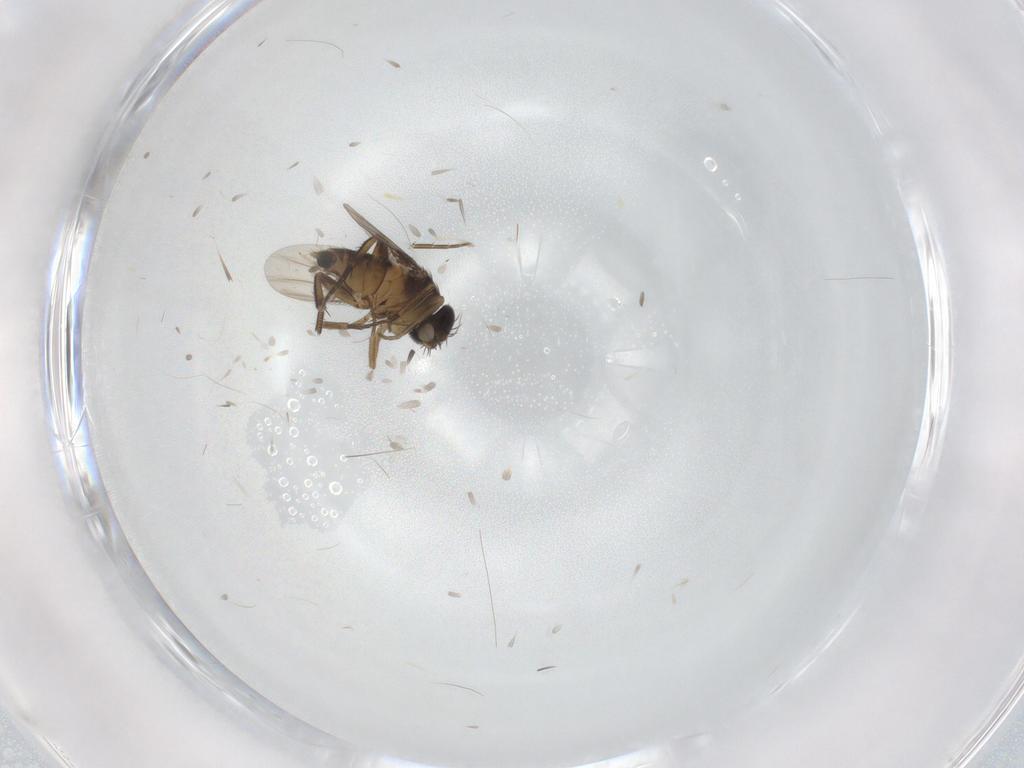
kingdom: Animalia
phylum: Arthropoda
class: Insecta
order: Diptera
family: Phoridae
